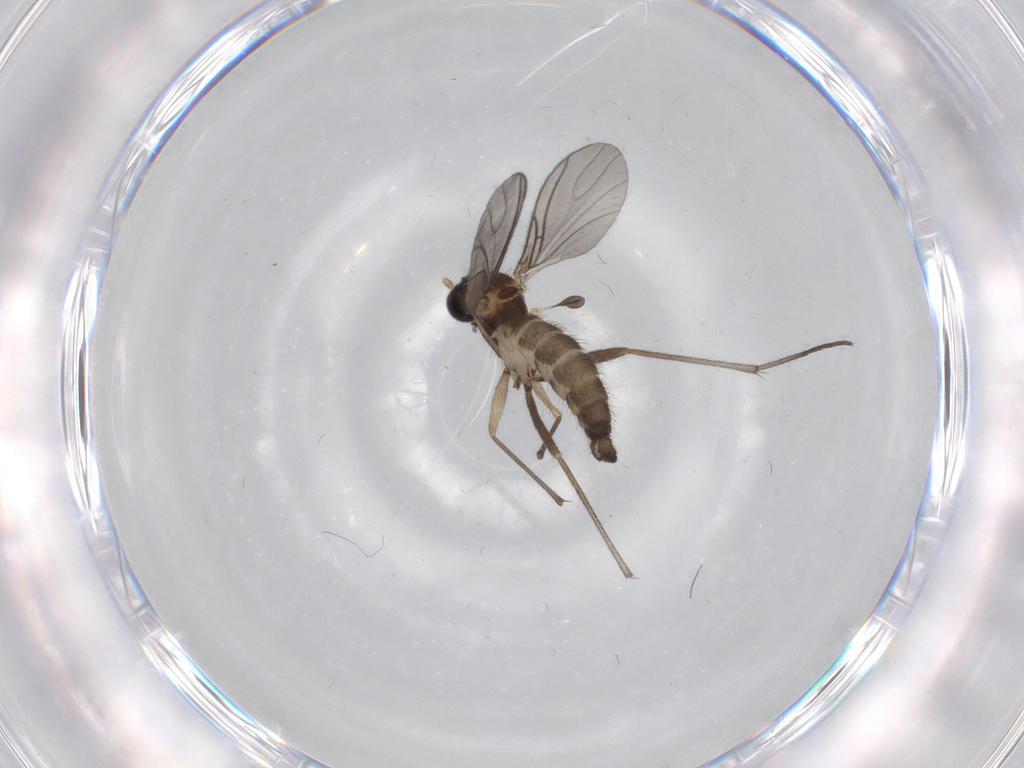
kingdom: Animalia
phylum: Arthropoda
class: Insecta
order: Diptera
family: Sciaridae
